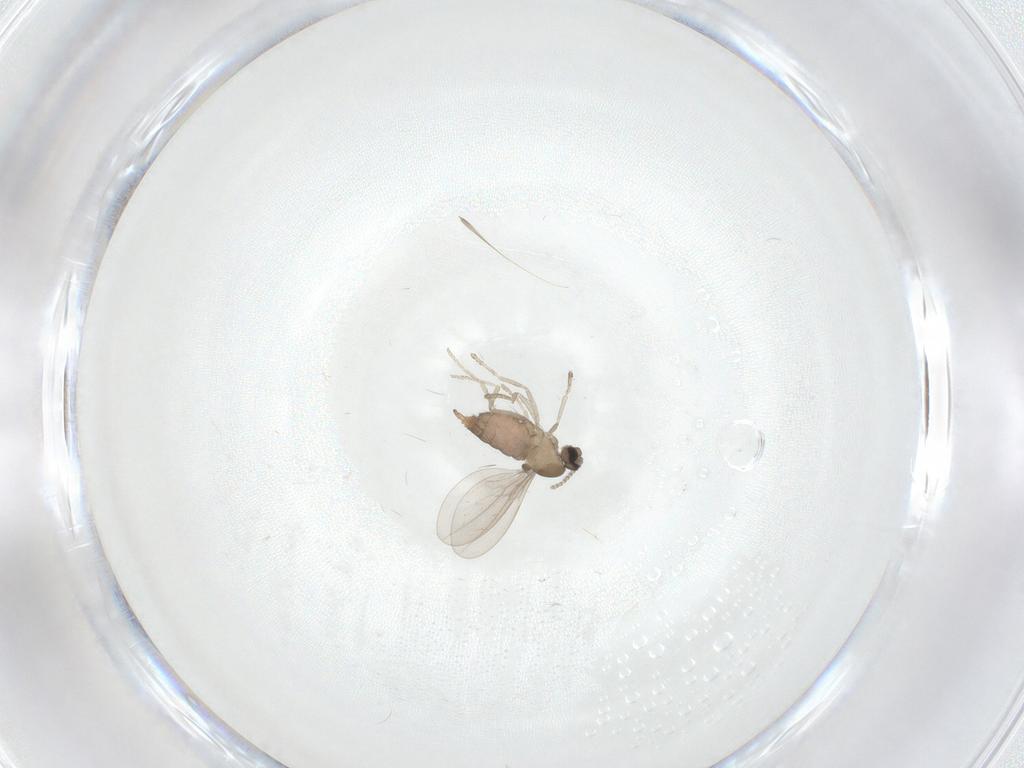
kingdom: Animalia
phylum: Arthropoda
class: Insecta
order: Diptera
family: Cecidomyiidae
